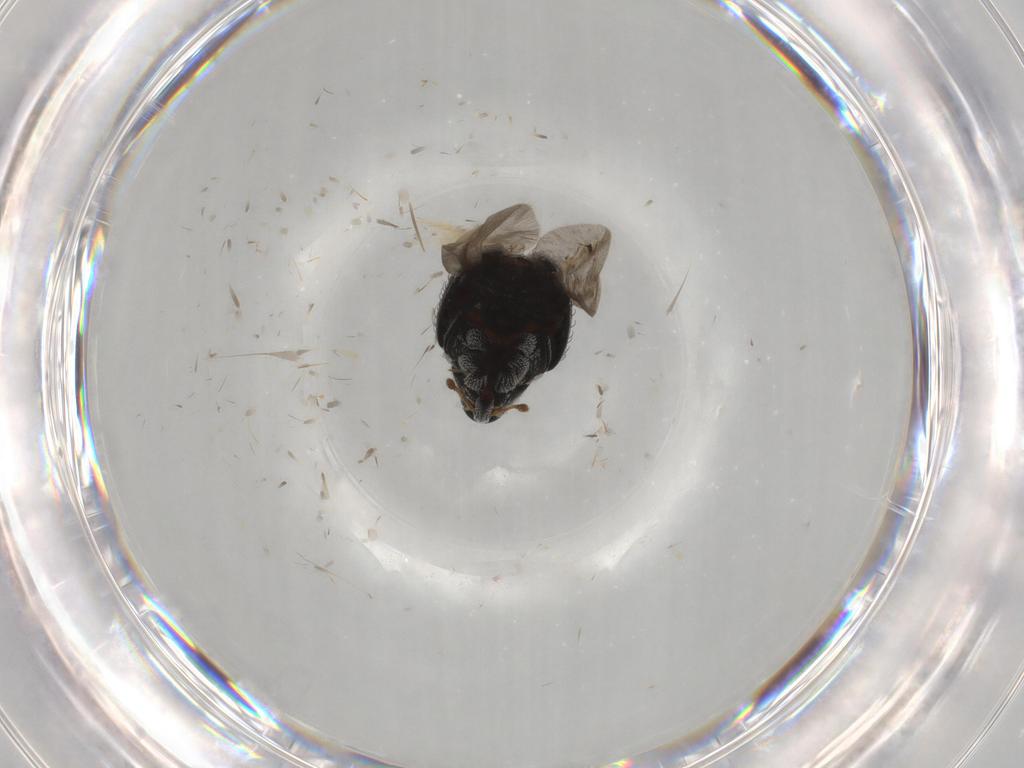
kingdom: Animalia
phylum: Arthropoda
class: Insecta
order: Coleoptera
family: Curculionidae
